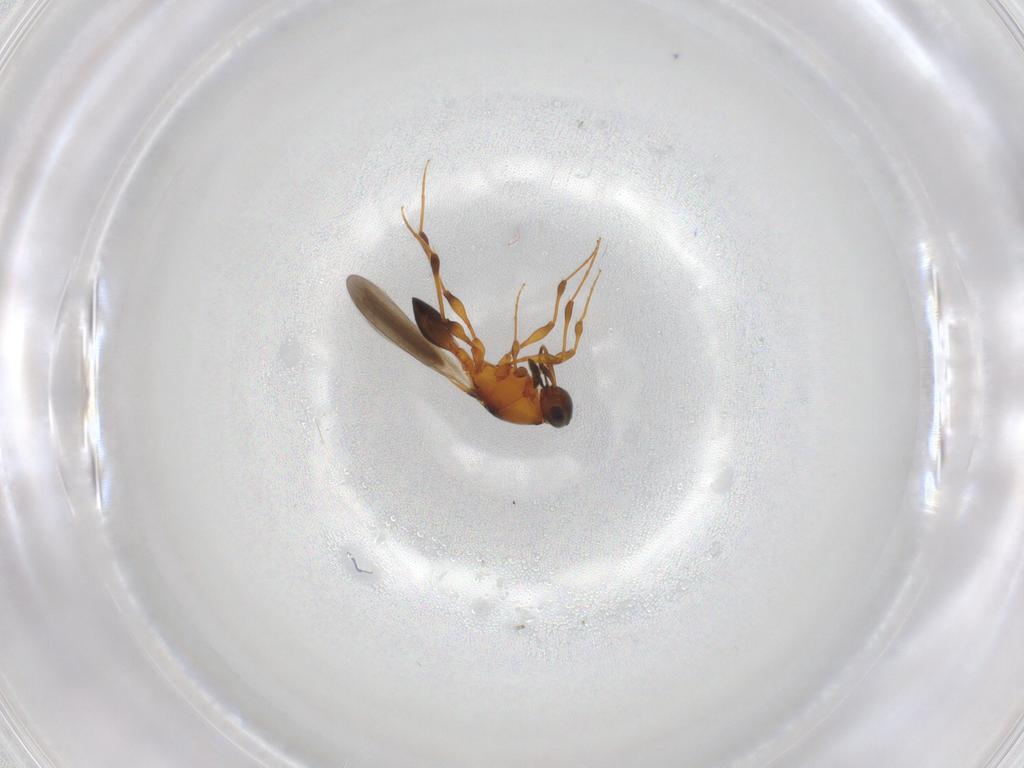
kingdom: Animalia
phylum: Arthropoda
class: Insecta
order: Hymenoptera
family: Platygastridae
